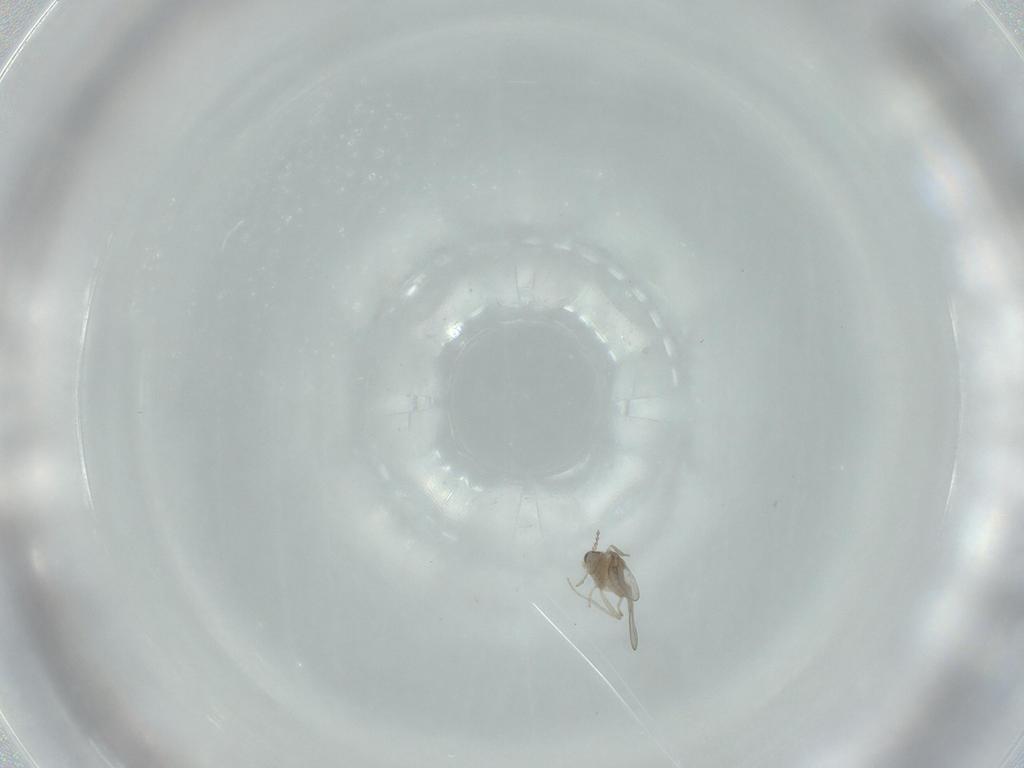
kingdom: Animalia
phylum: Arthropoda
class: Insecta
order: Diptera
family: Cecidomyiidae
